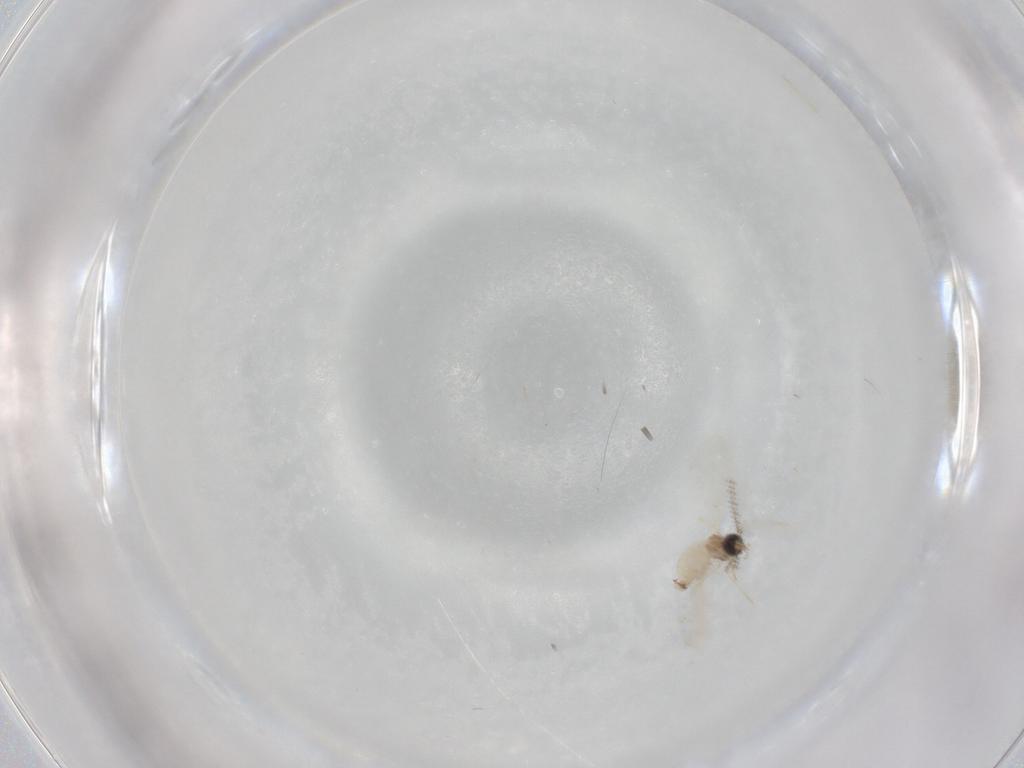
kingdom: Animalia
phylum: Arthropoda
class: Insecta
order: Diptera
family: Cecidomyiidae
